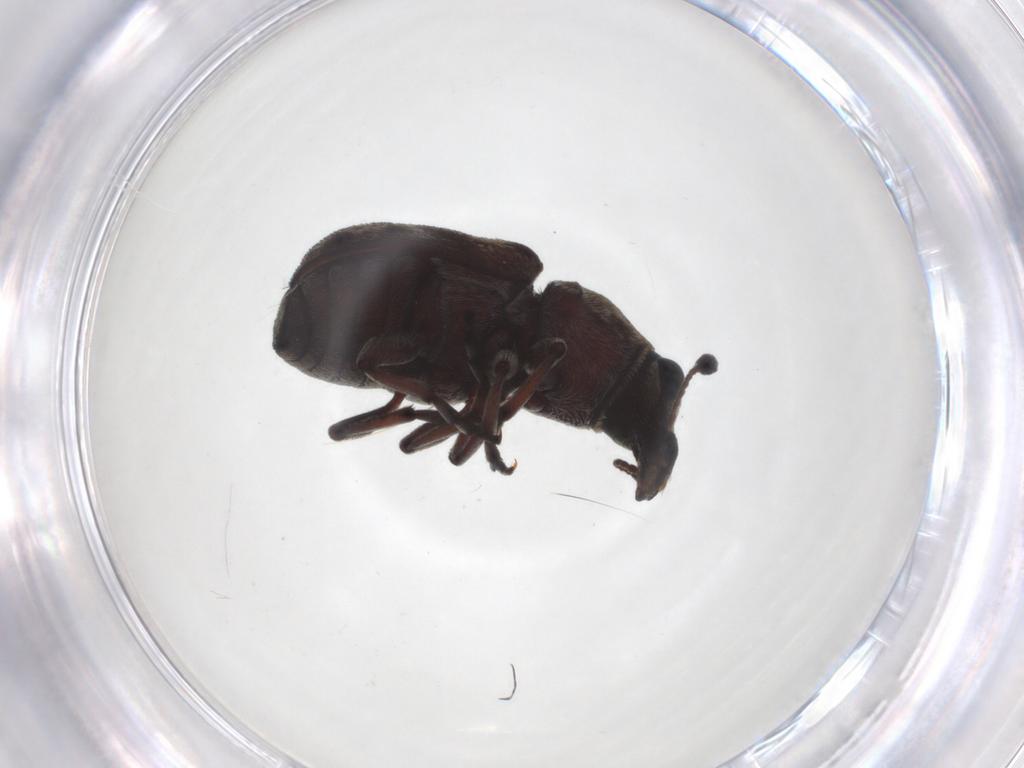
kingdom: Animalia
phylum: Arthropoda
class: Insecta
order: Coleoptera
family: Anthribidae
